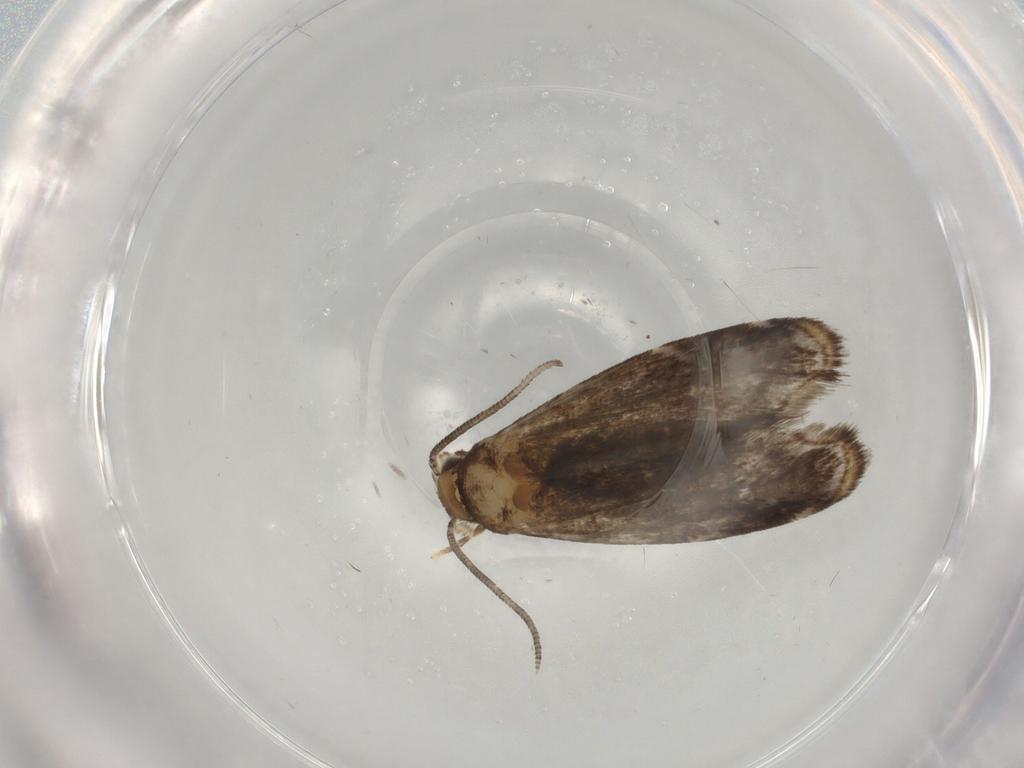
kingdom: Animalia
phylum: Arthropoda
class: Insecta
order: Lepidoptera
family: Dryadaulidae
